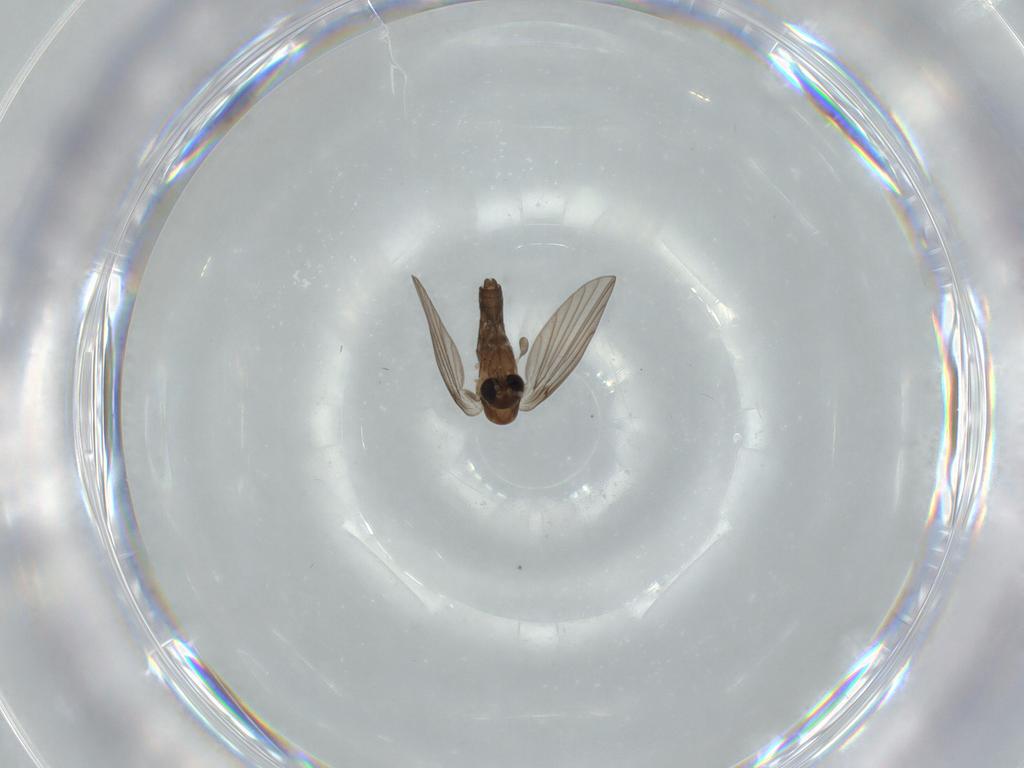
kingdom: Animalia
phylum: Arthropoda
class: Insecta
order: Diptera
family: Psychodidae
